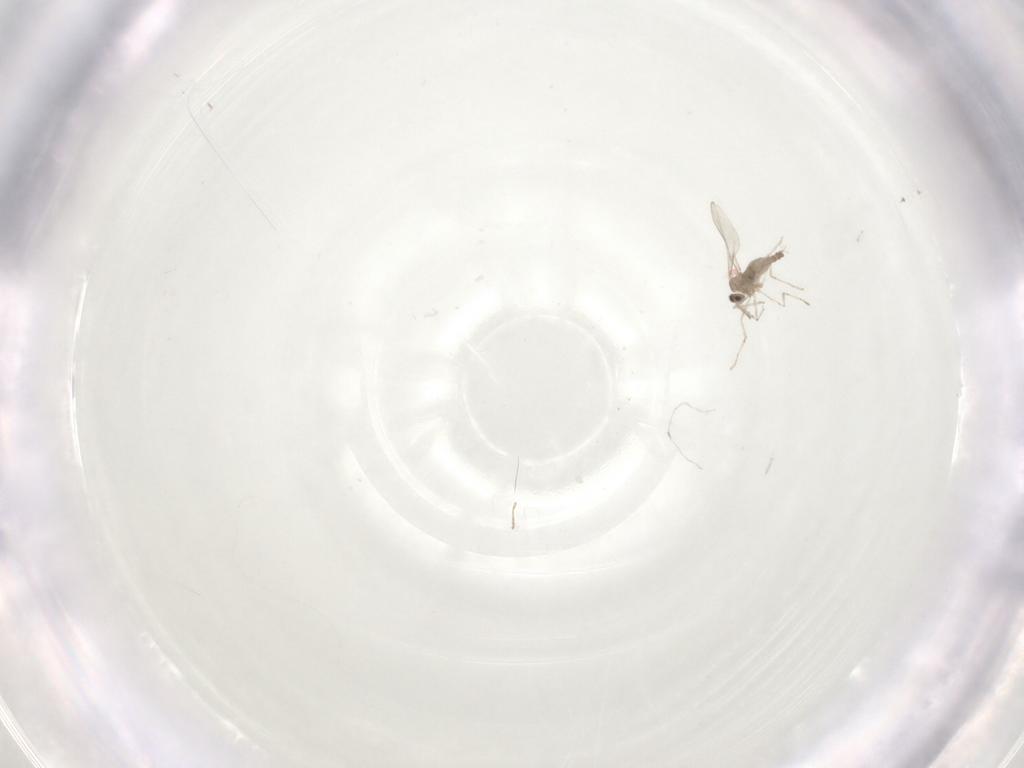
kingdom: Animalia
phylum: Arthropoda
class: Insecta
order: Diptera
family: Cecidomyiidae
